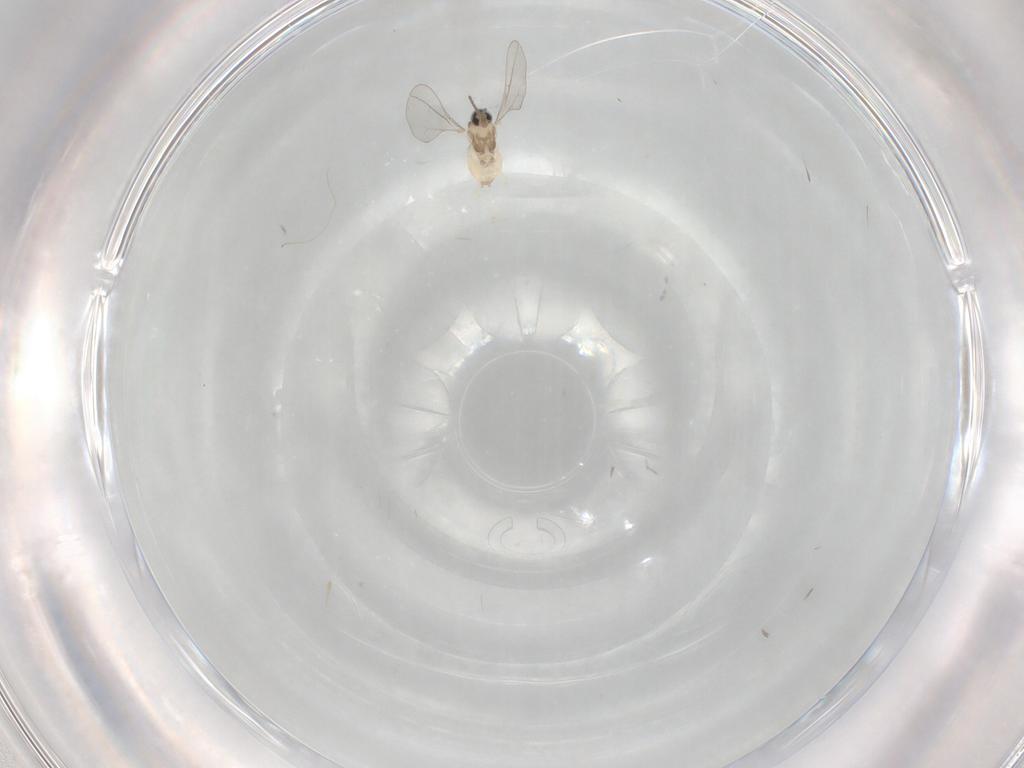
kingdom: Animalia
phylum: Arthropoda
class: Insecta
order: Diptera
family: Cecidomyiidae
